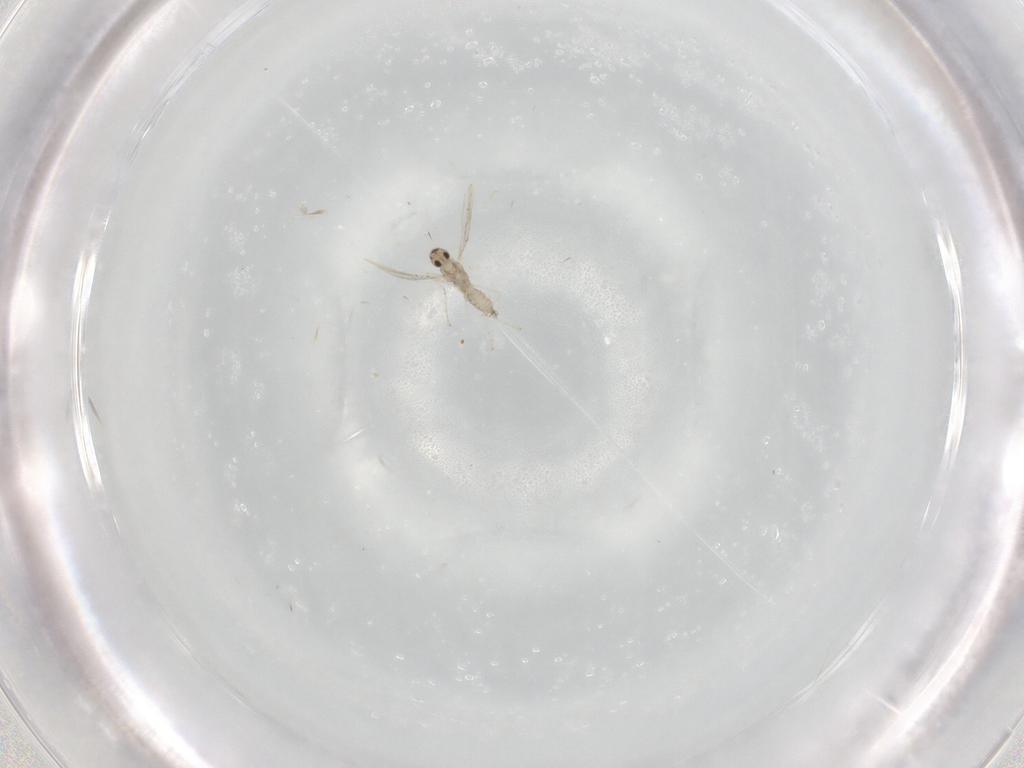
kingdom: Animalia
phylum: Arthropoda
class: Insecta
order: Diptera
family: Cecidomyiidae
